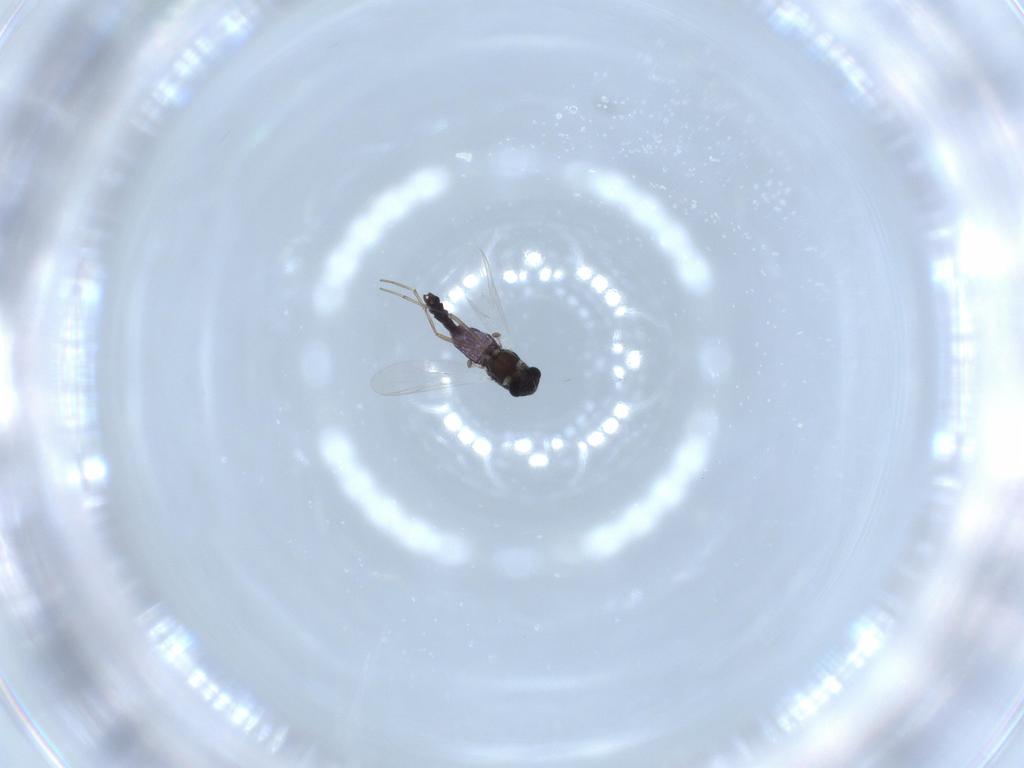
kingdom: Animalia
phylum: Arthropoda
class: Insecta
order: Diptera
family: Chironomidae
